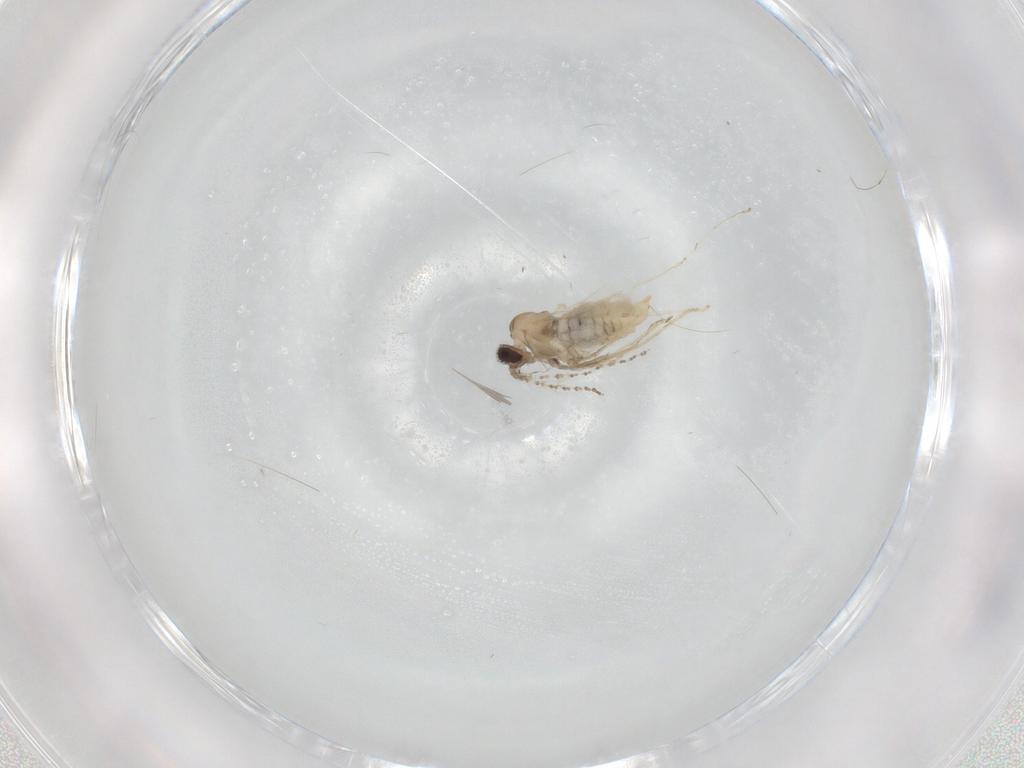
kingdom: Animalia
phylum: Arthropoda
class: Insecta
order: Diptera
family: Cecidomyiidae
